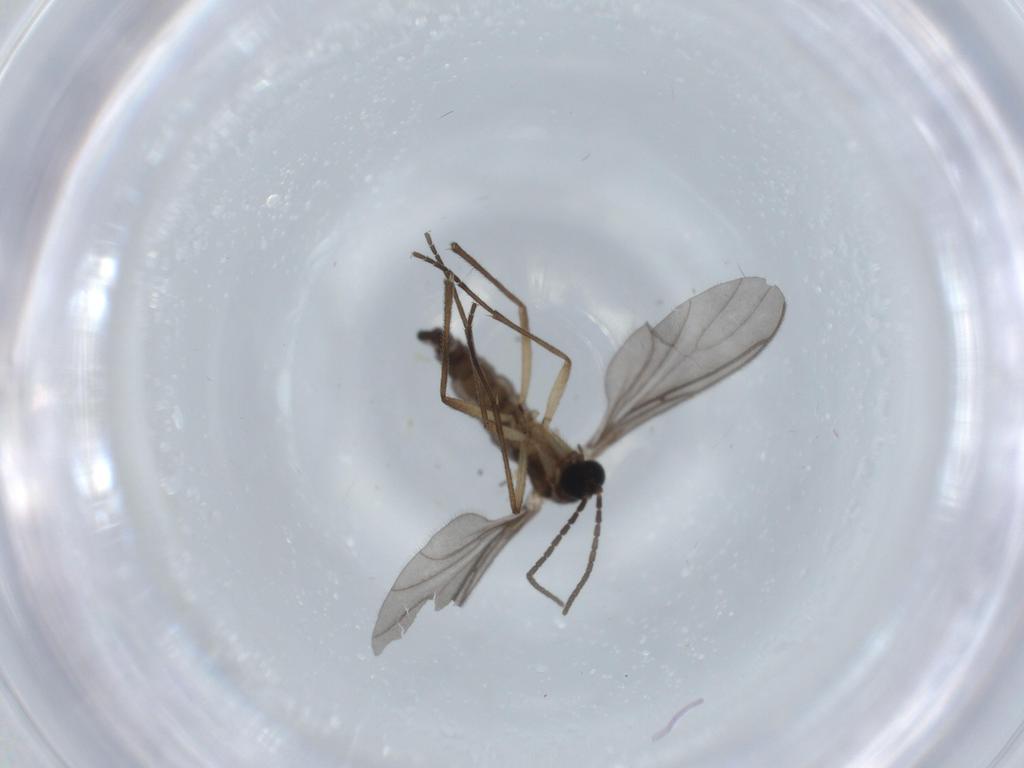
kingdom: Animalia
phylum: Arthropoda
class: Insecta
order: Diptera
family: Sciaridae
